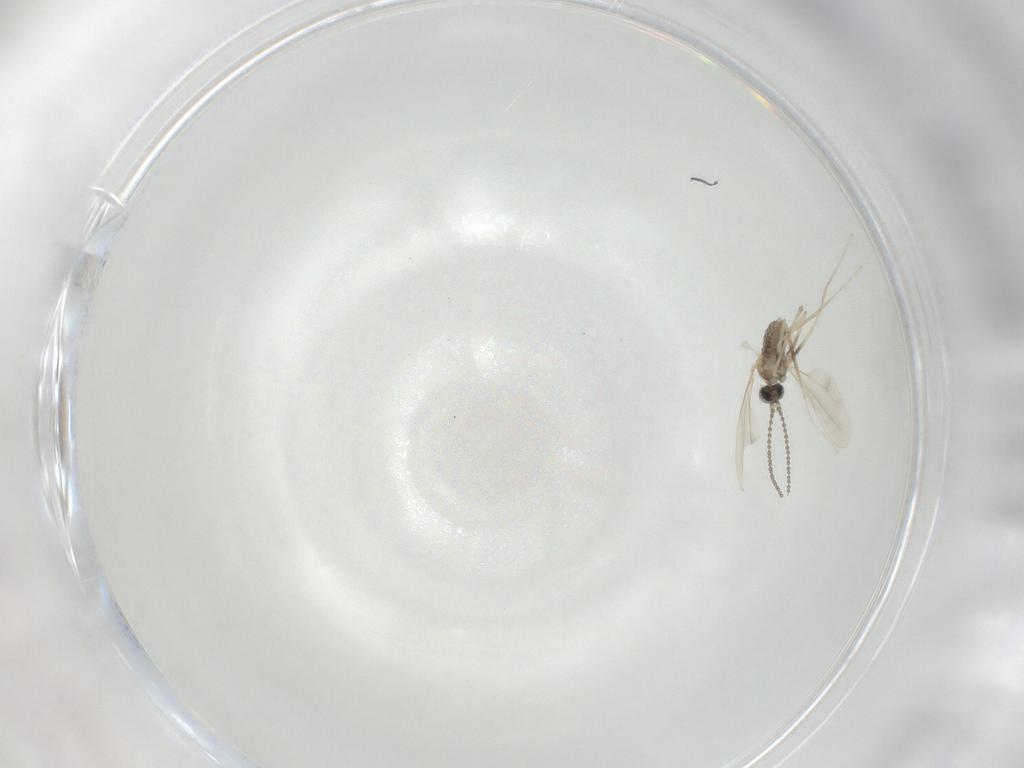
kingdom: Animalia
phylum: Arthropoda
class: Insecta
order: Diptera
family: Cecidomyiidae
